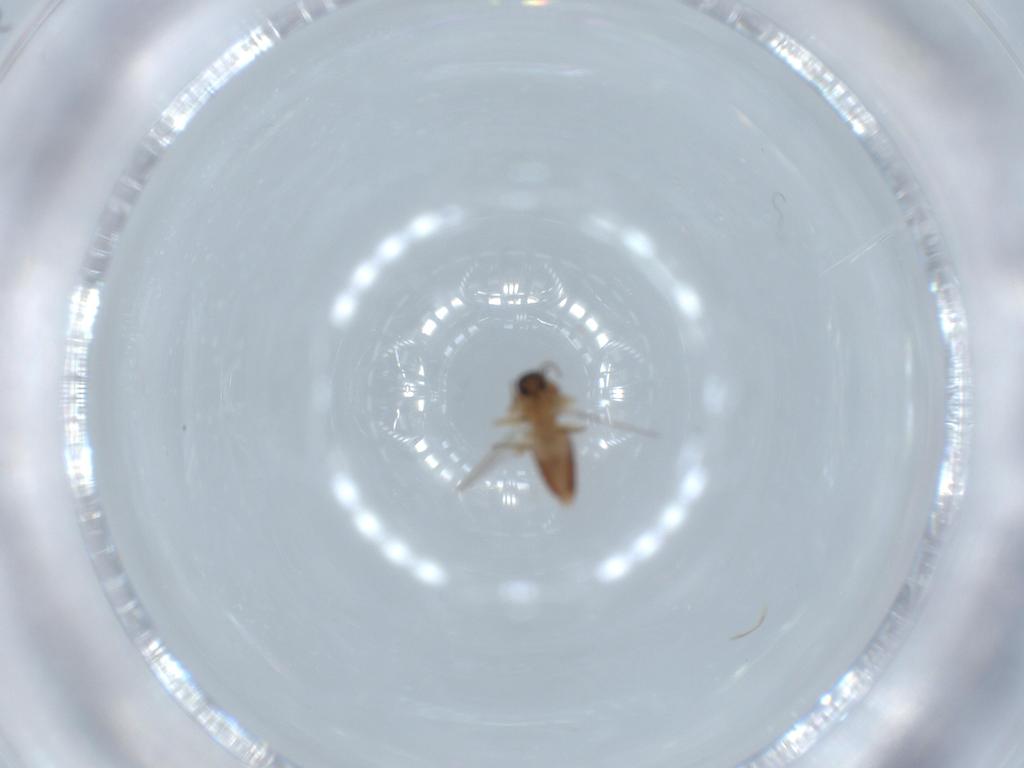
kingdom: Animalia
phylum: Arthropoda
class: Insecta
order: Diptera
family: Ceratopogonidae
